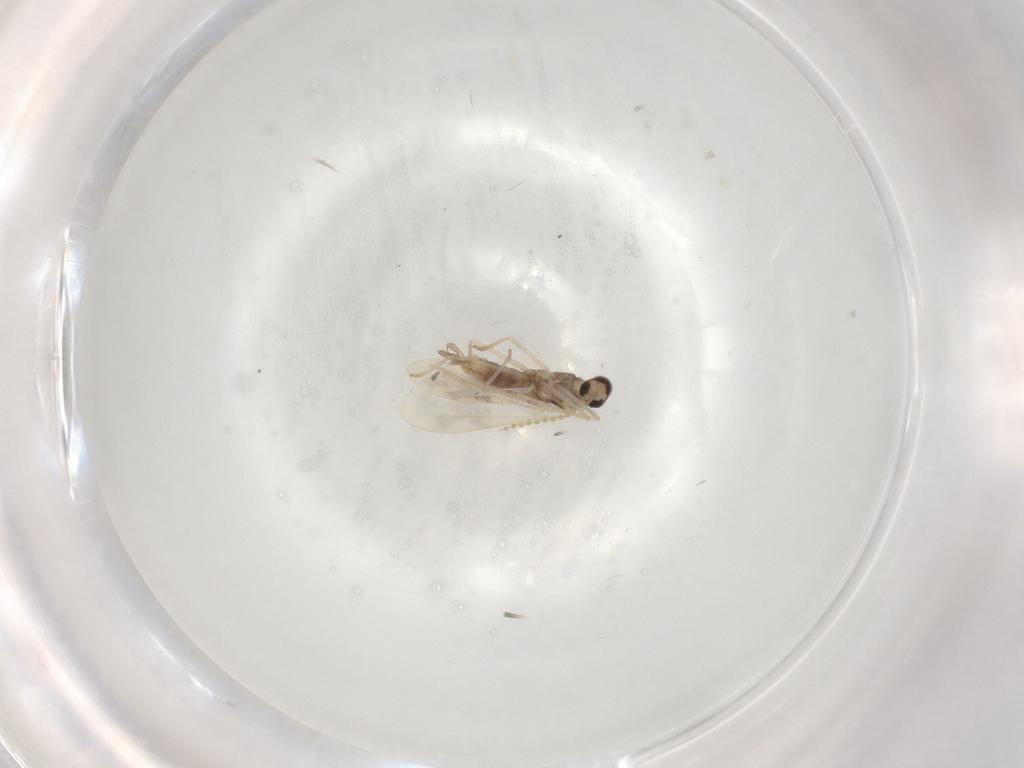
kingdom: Animalia
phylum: Arthropoda
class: Insecta
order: Diptera
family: Cecidomyiidae
